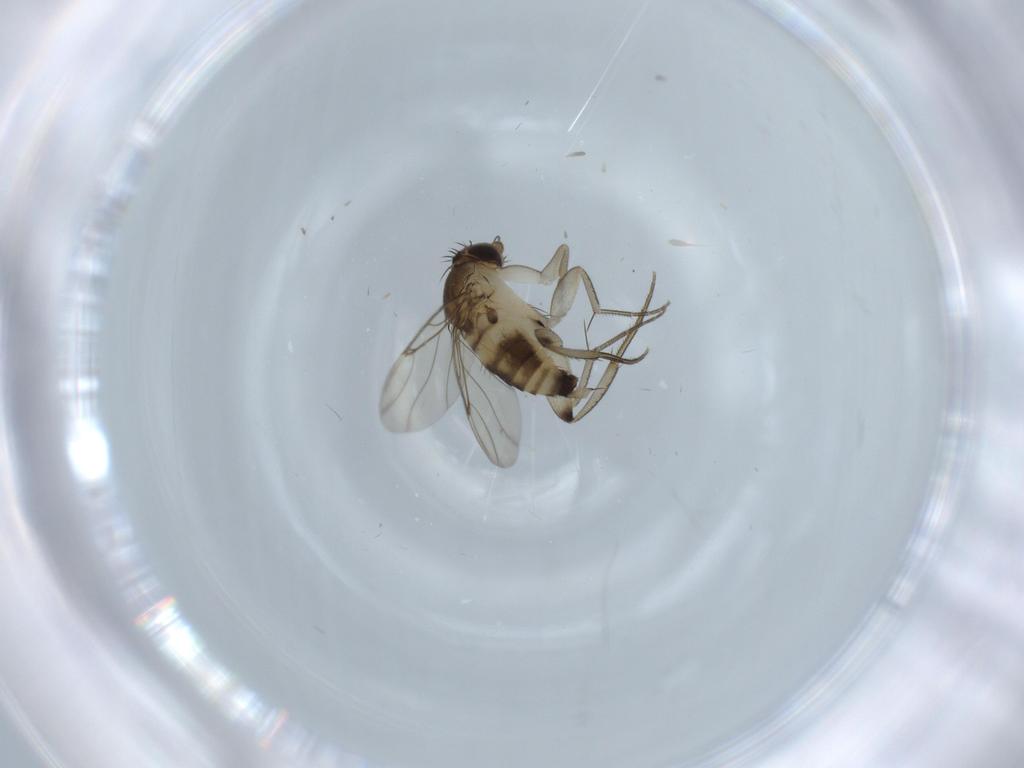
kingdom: Animalia
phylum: Arthropoda
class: Insecta
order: Diptera
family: Phoridae
